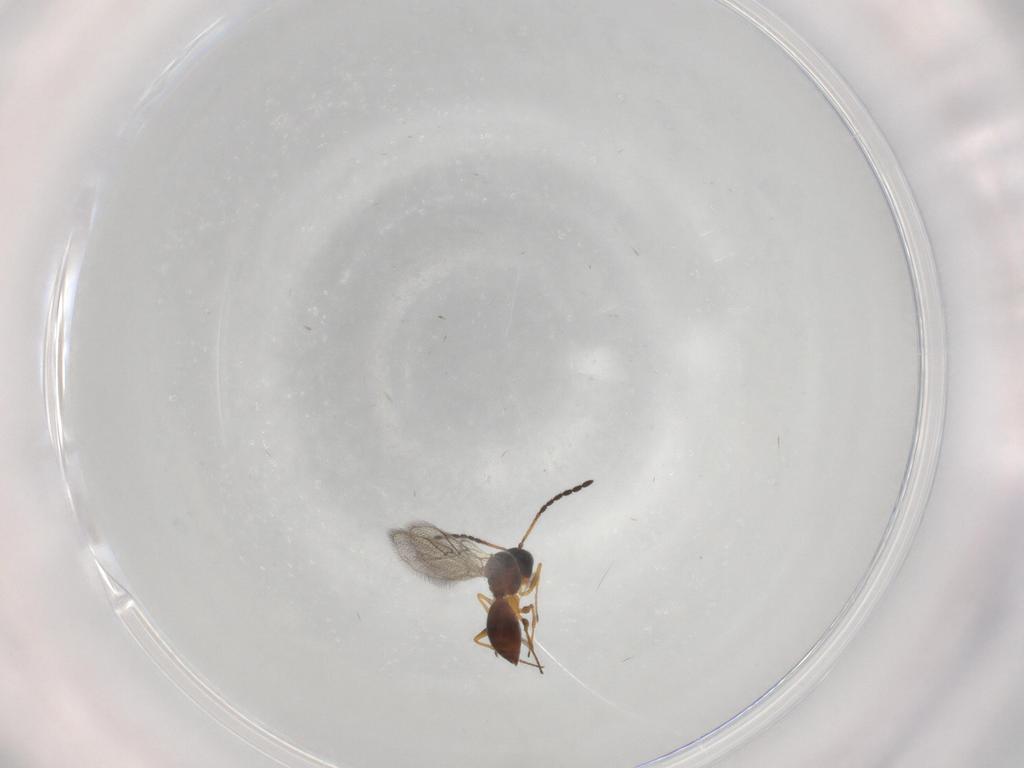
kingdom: Animalia
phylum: Arthropoda
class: Insecta
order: Hymenoptera
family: Figitidae
